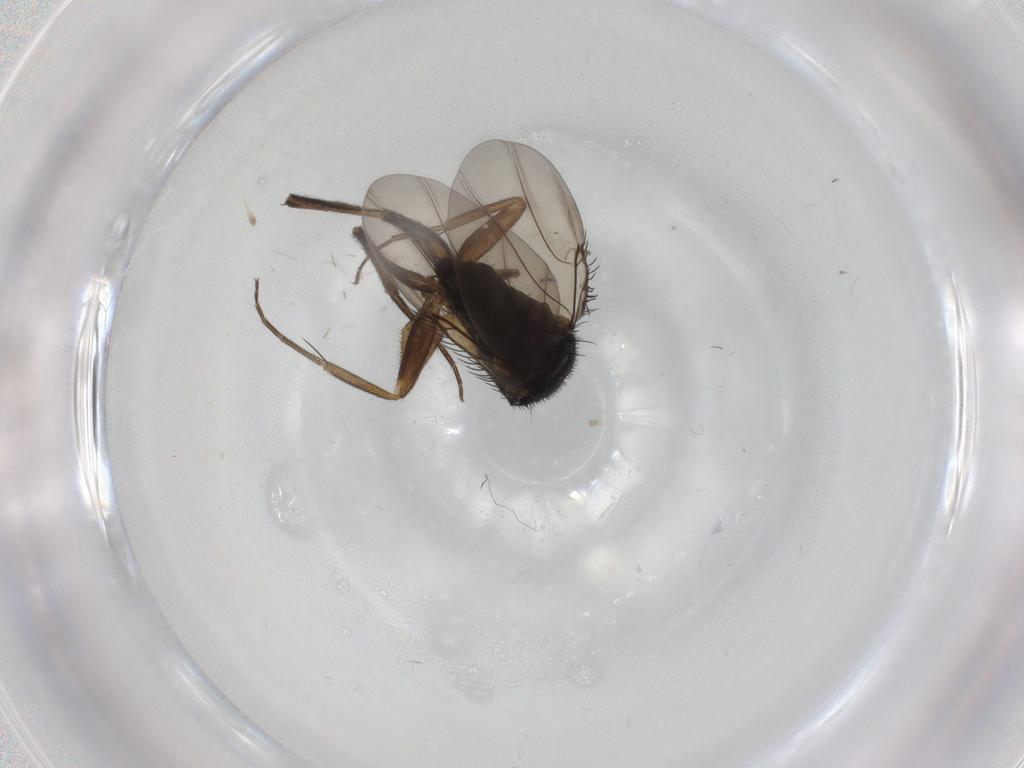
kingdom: Animalia
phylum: Arthropoda
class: Insecta
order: Diptera
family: Phoridae
